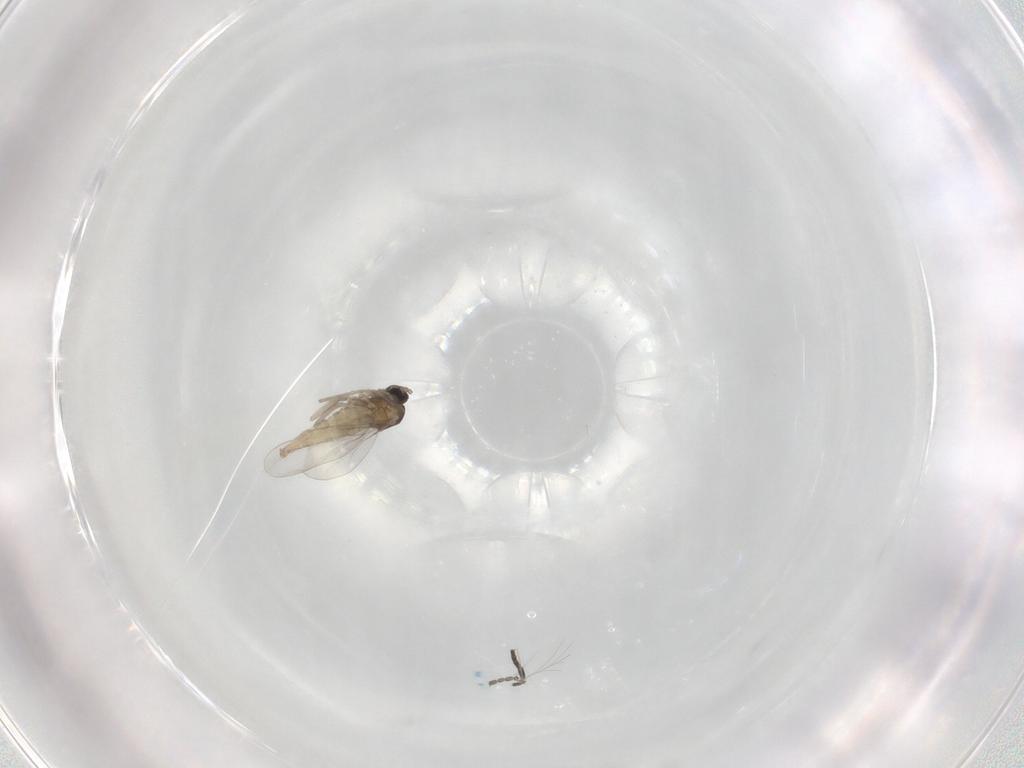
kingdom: Animalia
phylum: Arthropoda
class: Insecta
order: Diptera
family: Cecidomyiidae
